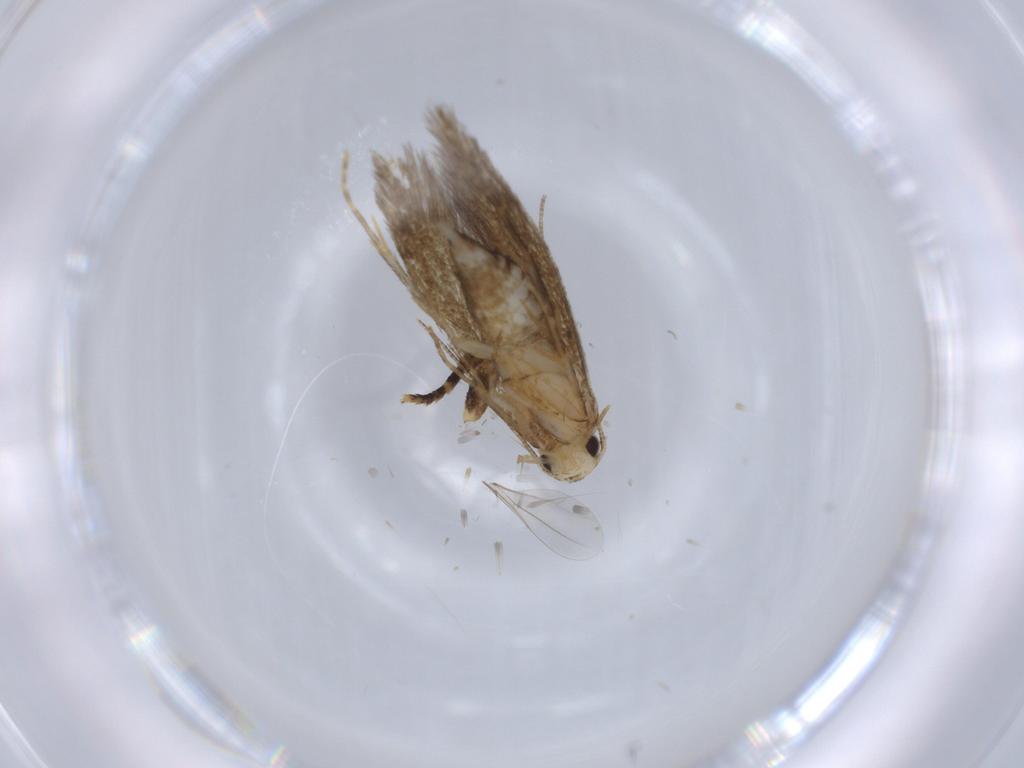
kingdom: Animalia
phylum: Arthropoda
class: Insecta
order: Lepidoptera
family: Tineidae
